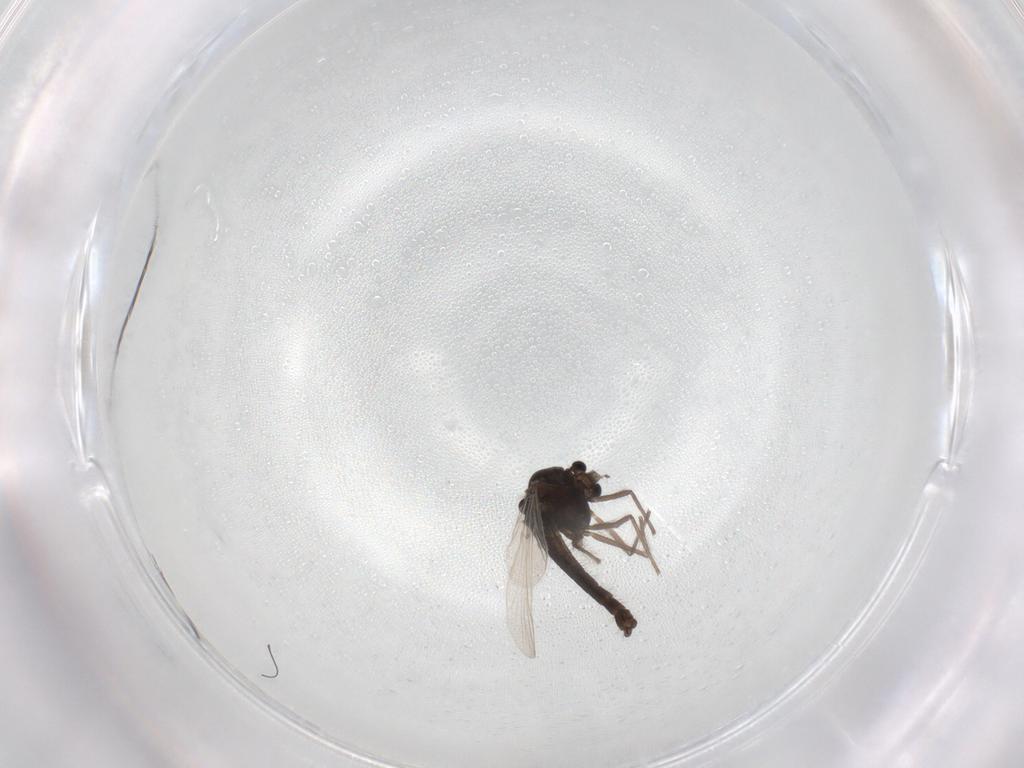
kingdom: Animalia
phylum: Arthropoda
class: Insecta
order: Diptera
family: Chironomidae
